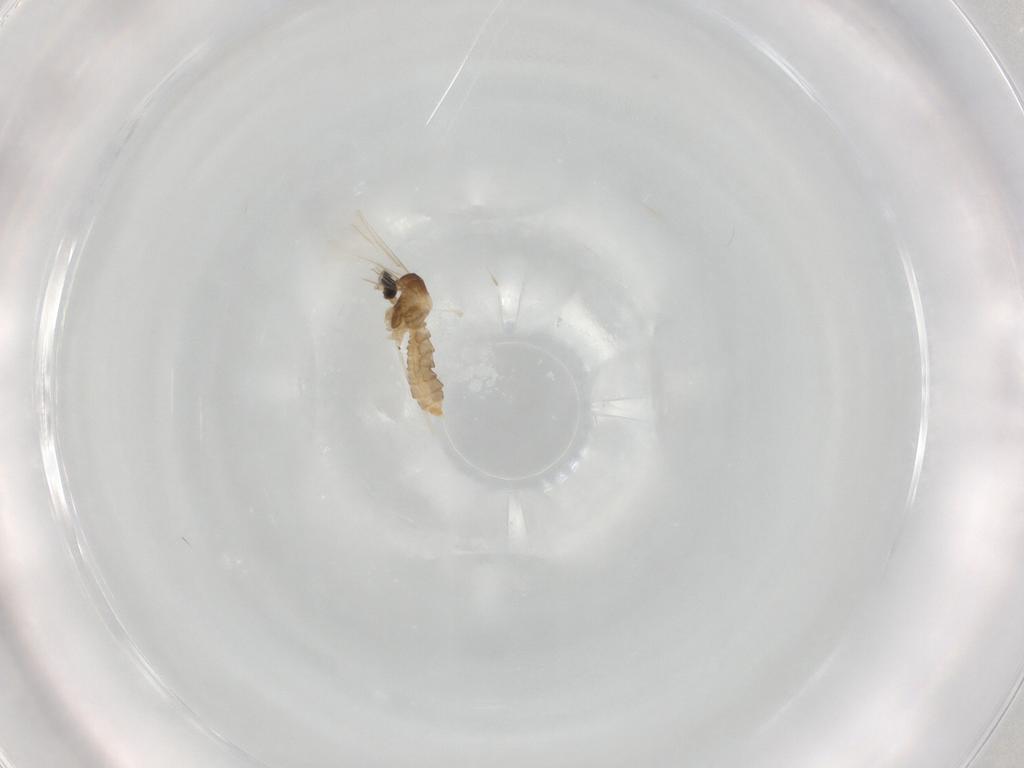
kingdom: Animalia
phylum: Arthropoda
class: Insecta
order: Diptera
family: Cecidomyiidae
